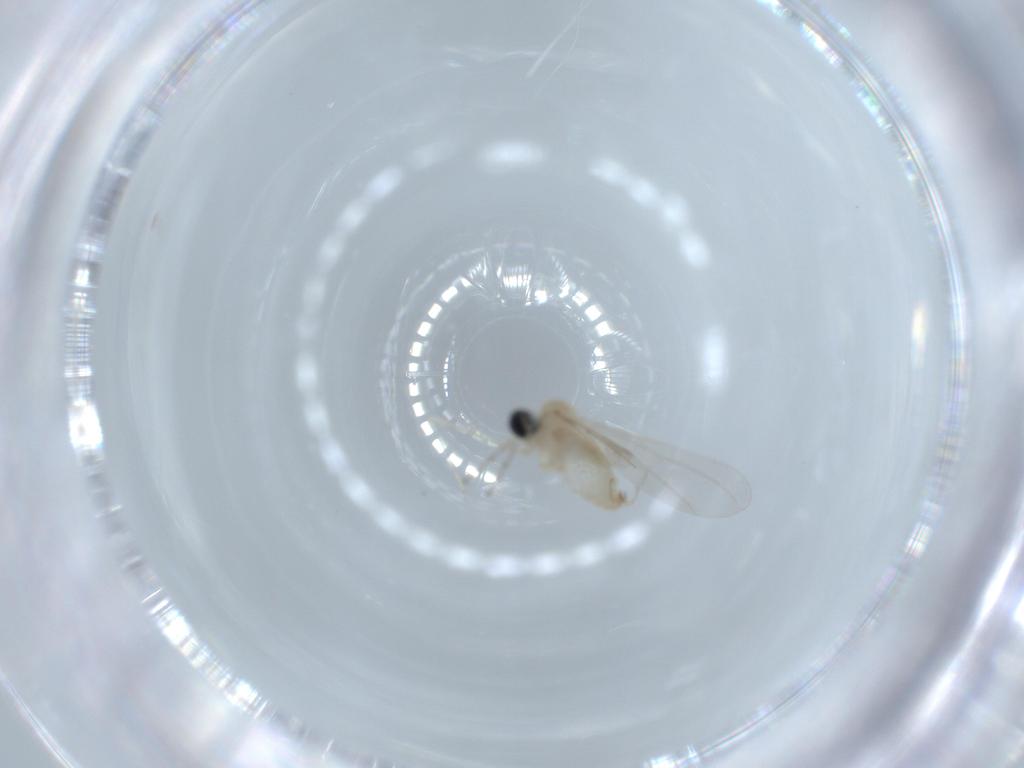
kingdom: Animalia
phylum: Arthropoda
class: Insecta
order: Diptera
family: Cecidomyiidae
